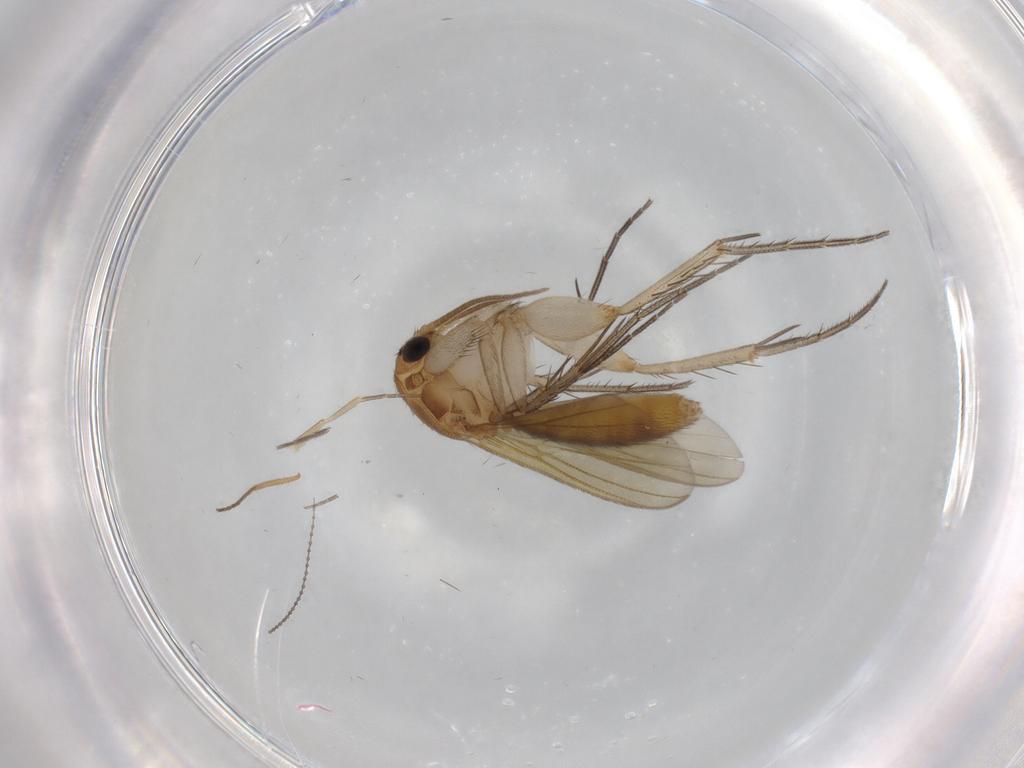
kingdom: Animalia
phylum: Arthropoda
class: Insecta
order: Diptera
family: Mycetophilidae
